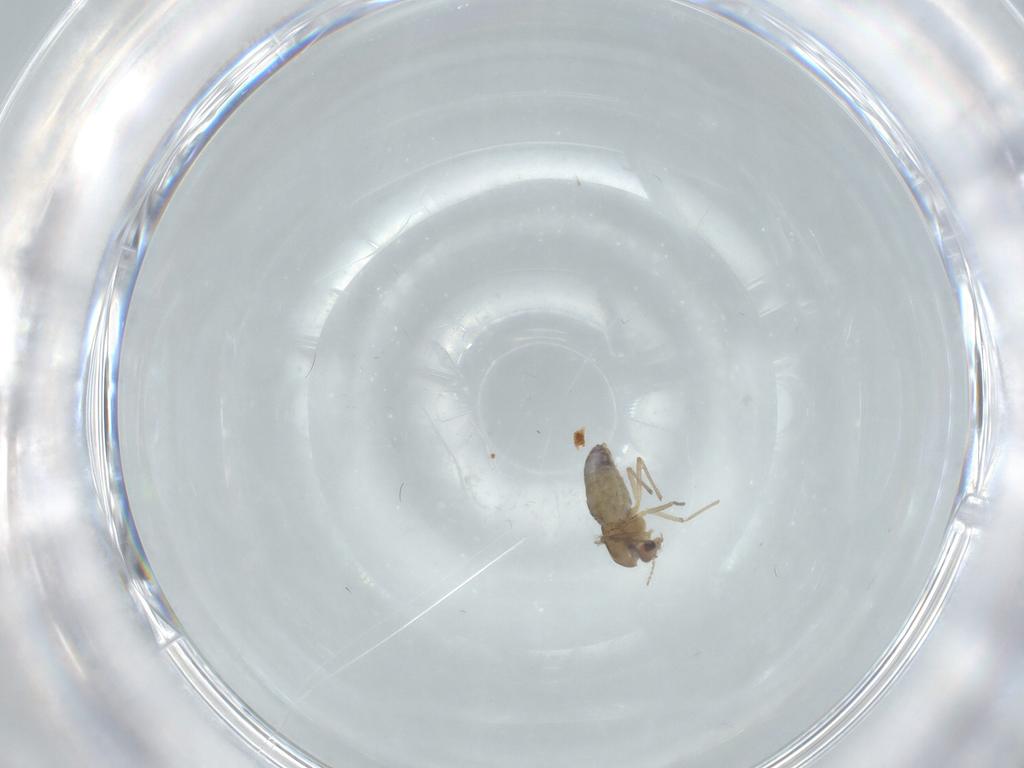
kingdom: Animalia
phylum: Arthropoda
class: Insecta
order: Diptera
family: Chironomidae
